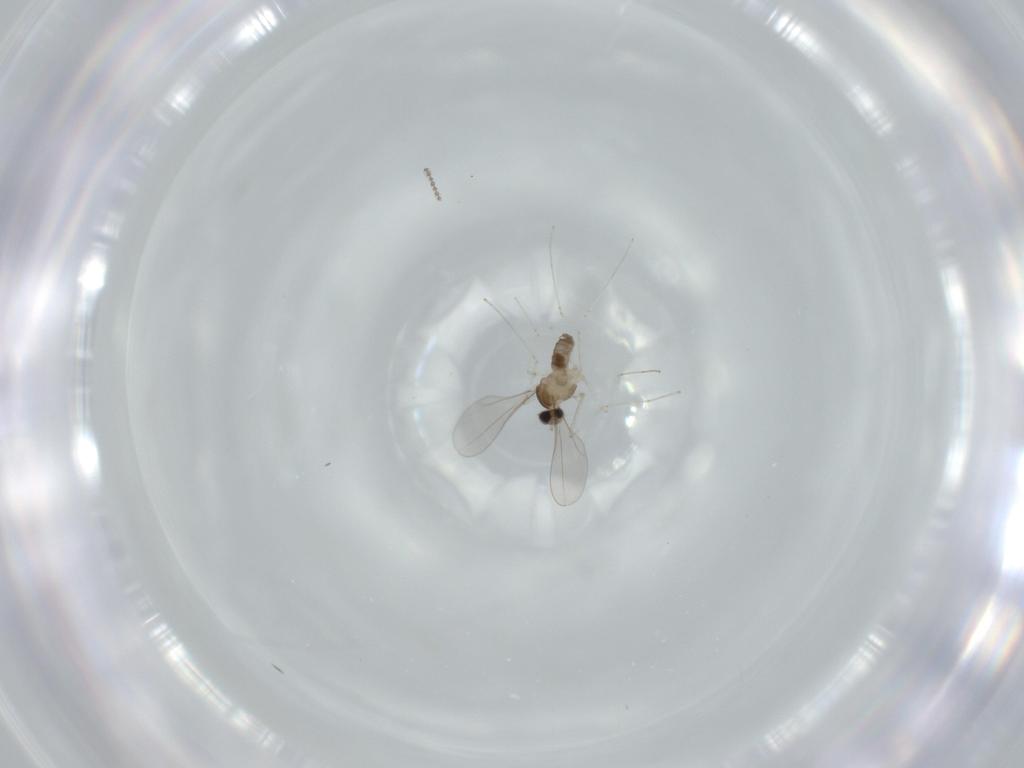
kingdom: Animalia
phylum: Arthropoda
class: Insecta
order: Diptera
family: Cecidomyiidae
